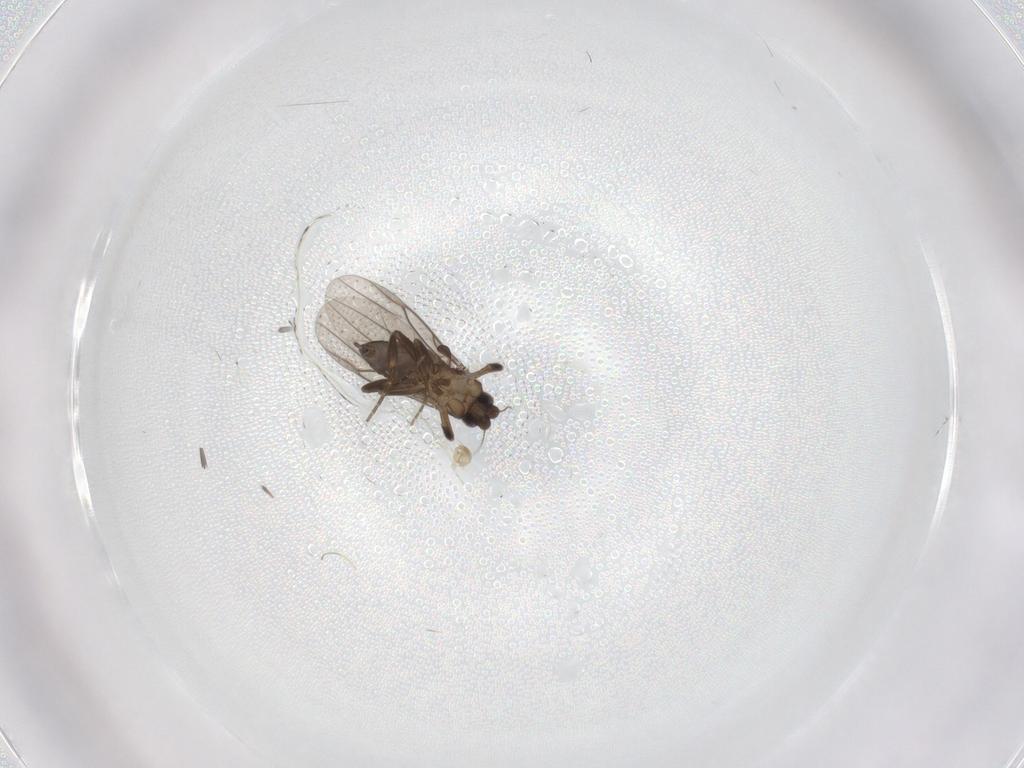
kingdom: Animalia
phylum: Arthropoda
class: Insecta
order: Diptera
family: Phoridae
